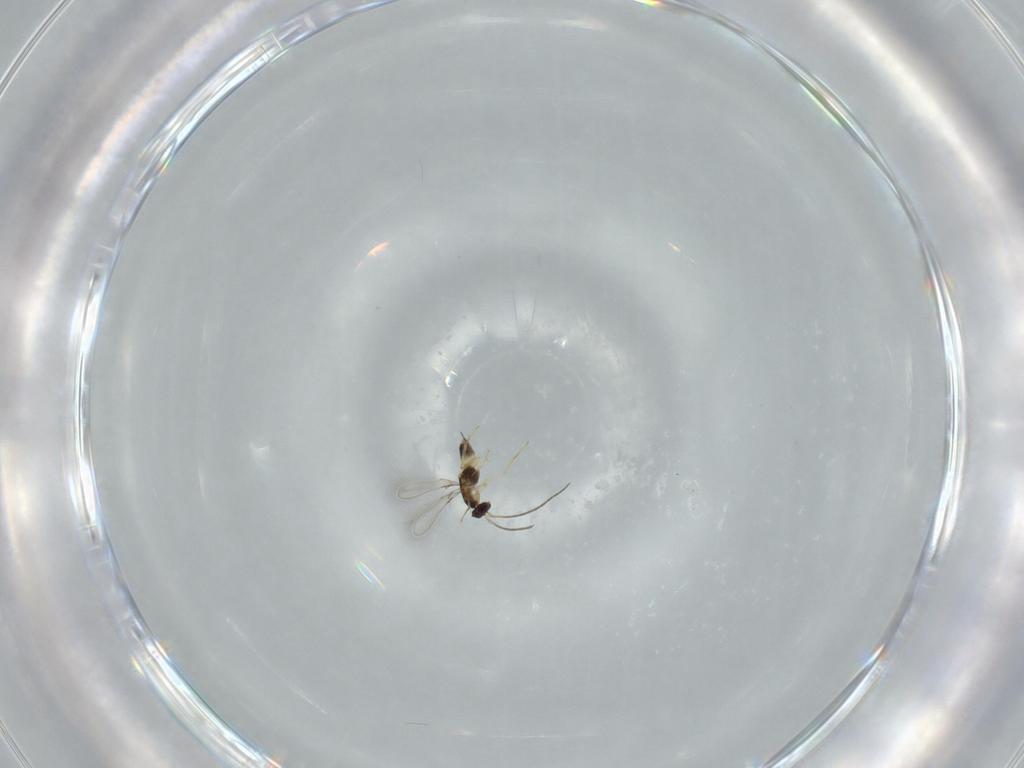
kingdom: Animalia
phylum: Arthropoda
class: Insecta
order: Hymenoptera
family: Mymaridae
